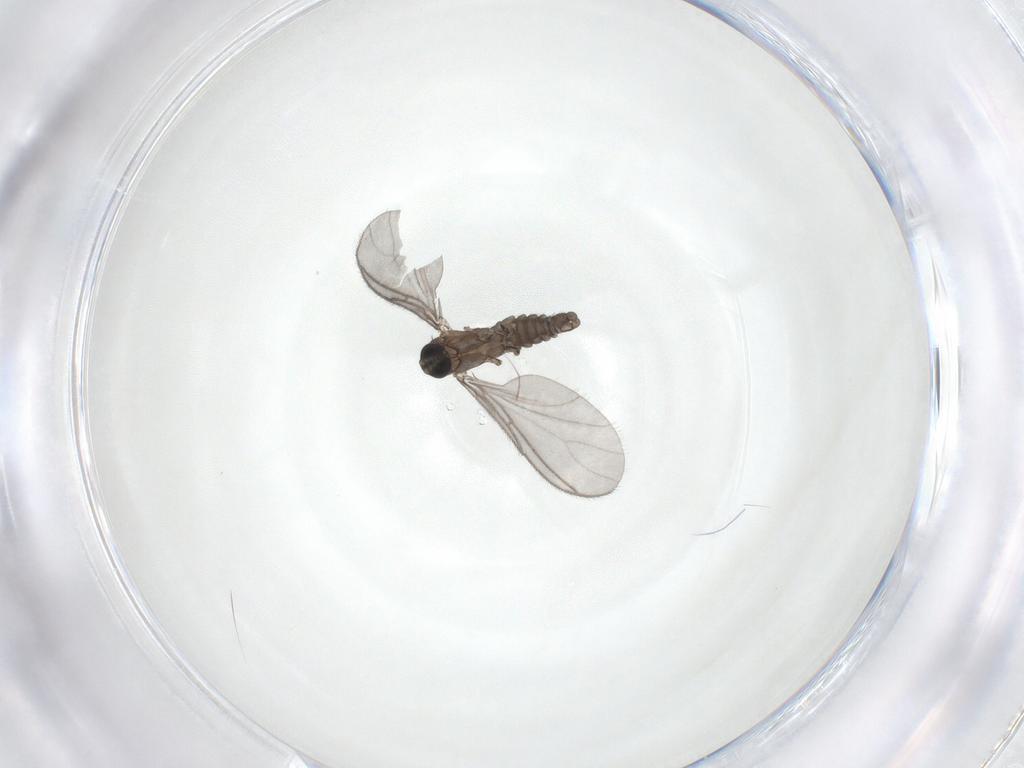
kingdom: Animalia
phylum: Arthropoda
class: Insecta
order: Diptera
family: Sciaridae
